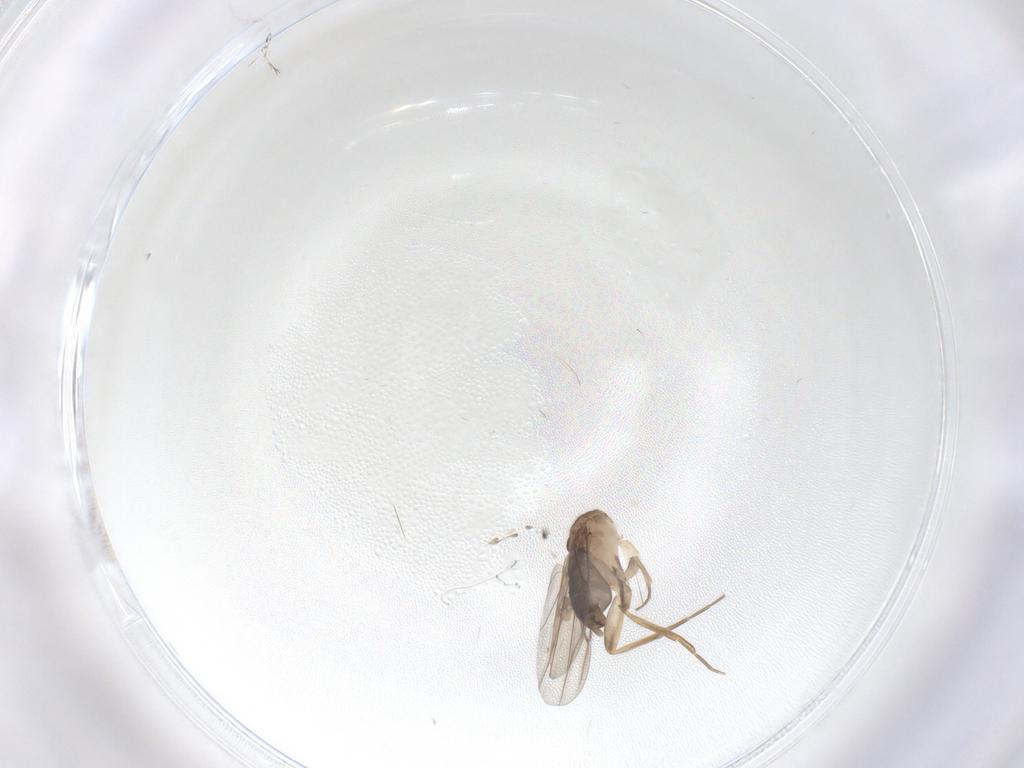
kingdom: Animalia
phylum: Arthropoda
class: Insecta
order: Diptera
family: Phoridae
